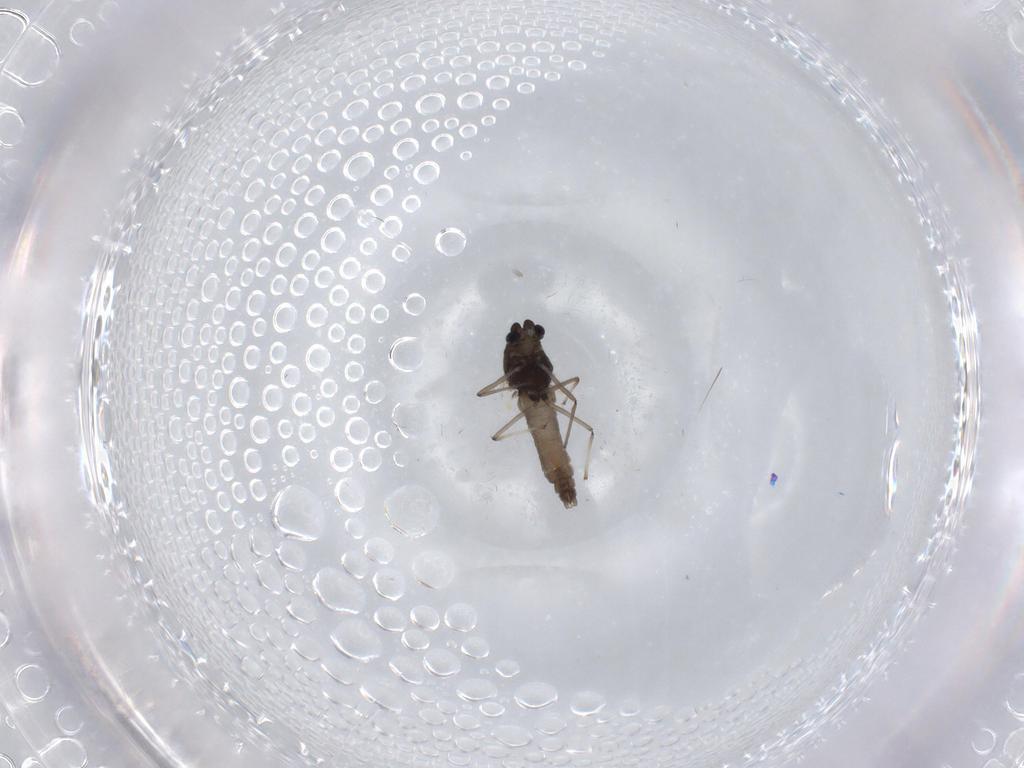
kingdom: Animalia
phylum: Arthropoda
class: Insecta
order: Diptera
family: Chironomidae
